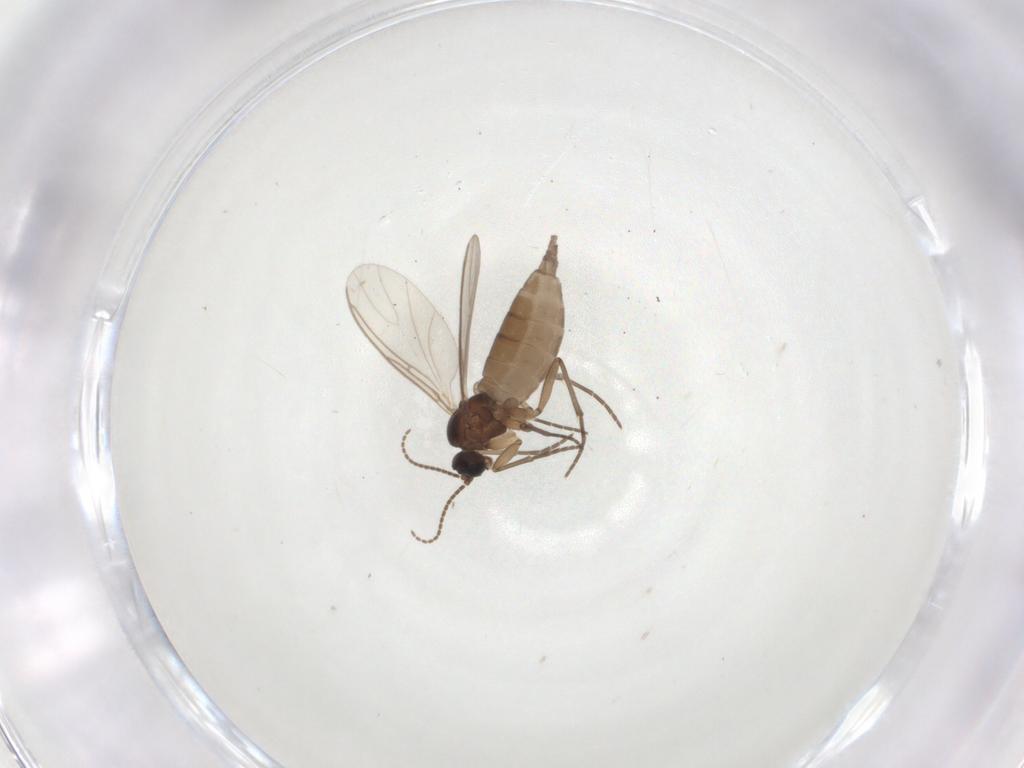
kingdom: Animalia
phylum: Arthropoda
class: Insecta
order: Diptera
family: Sciaridae
